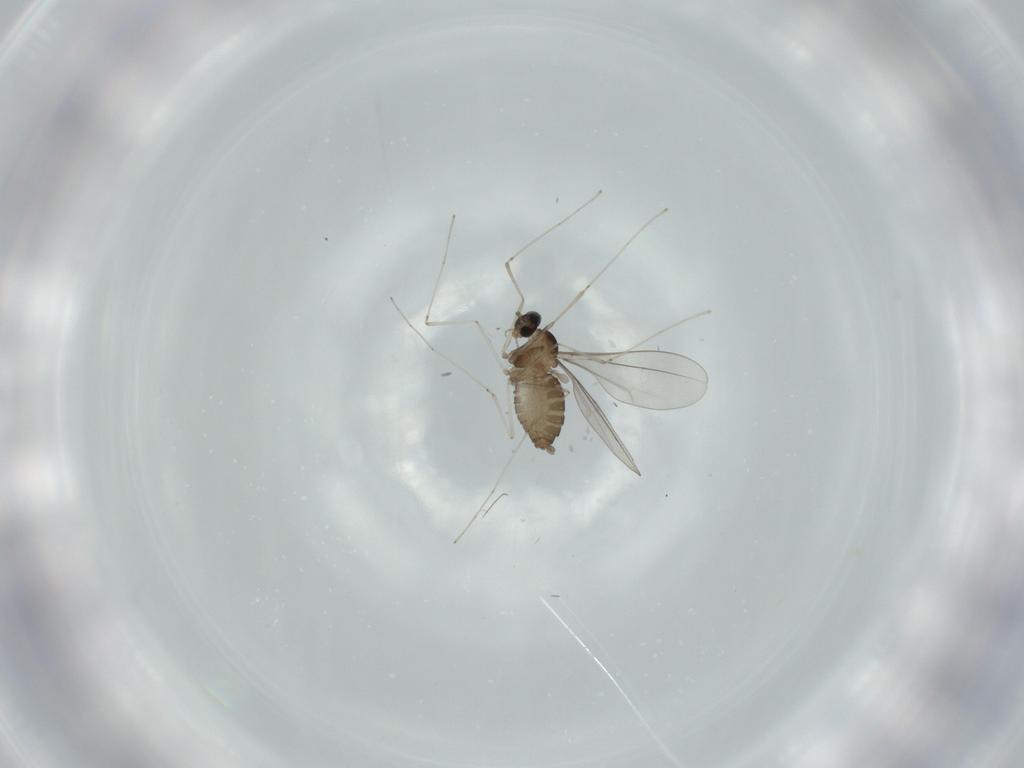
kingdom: Animalia
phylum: Arthropoda
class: Insecta
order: Diptera
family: Cecidomyiidae
